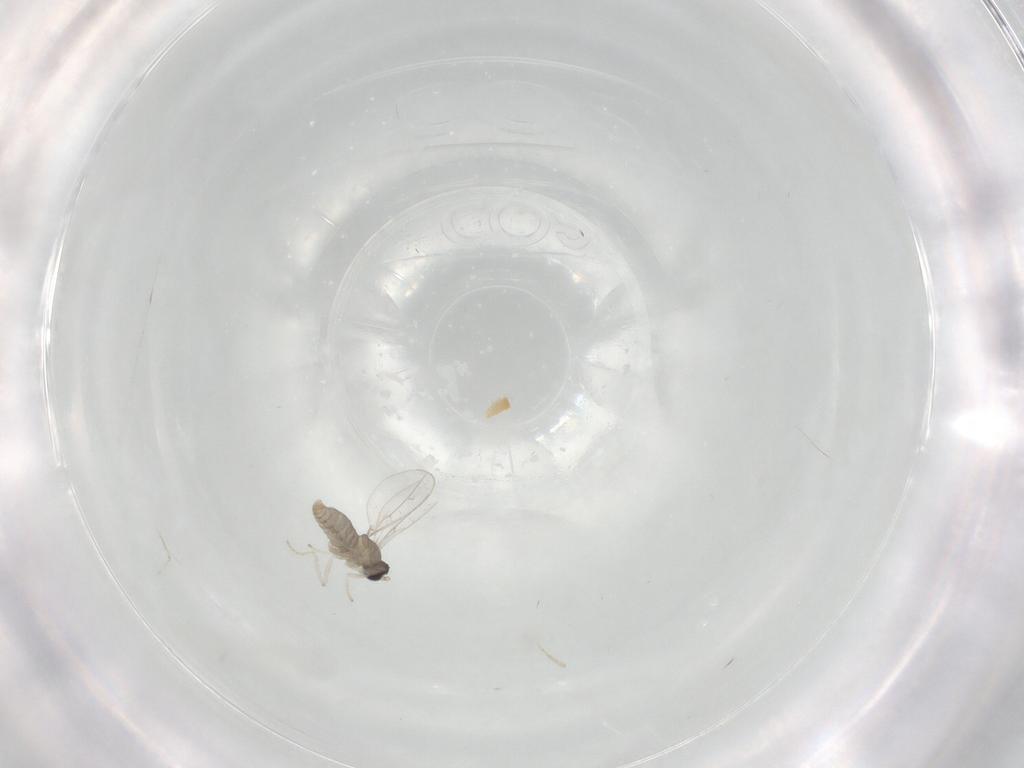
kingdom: Animalia
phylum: Arthropoda
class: Insecta
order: Diptera
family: Cecidomyiidae
